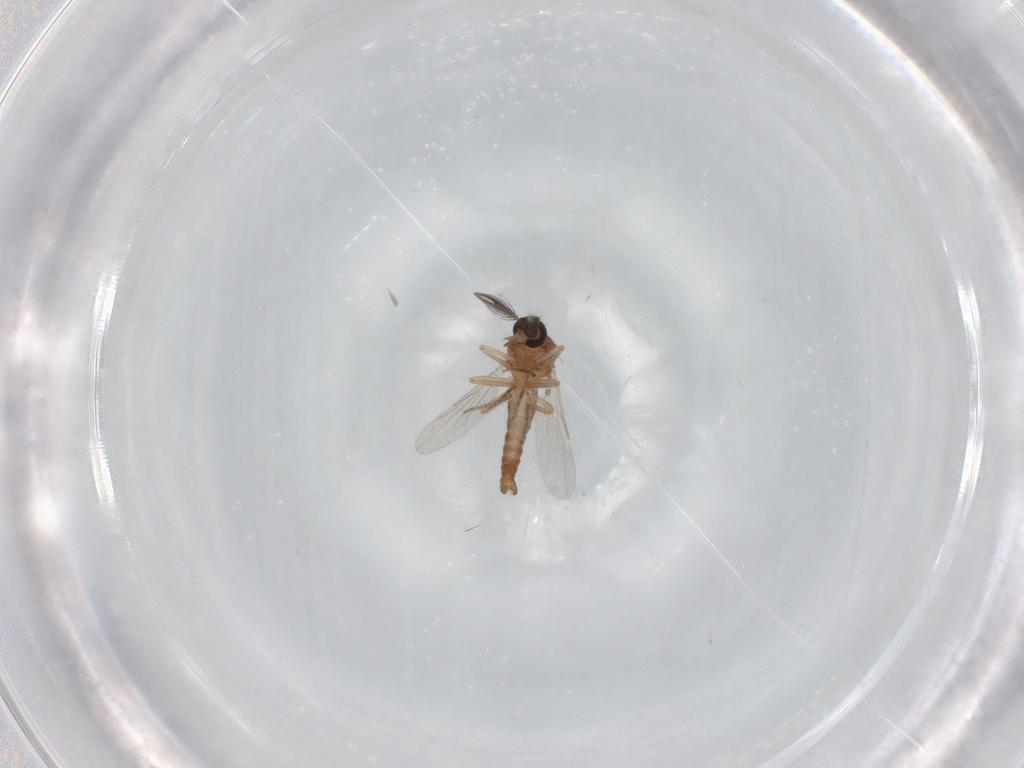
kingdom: Animalia
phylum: Arthropoda
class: Insecta
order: Diptera
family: Ceratopogonidae
